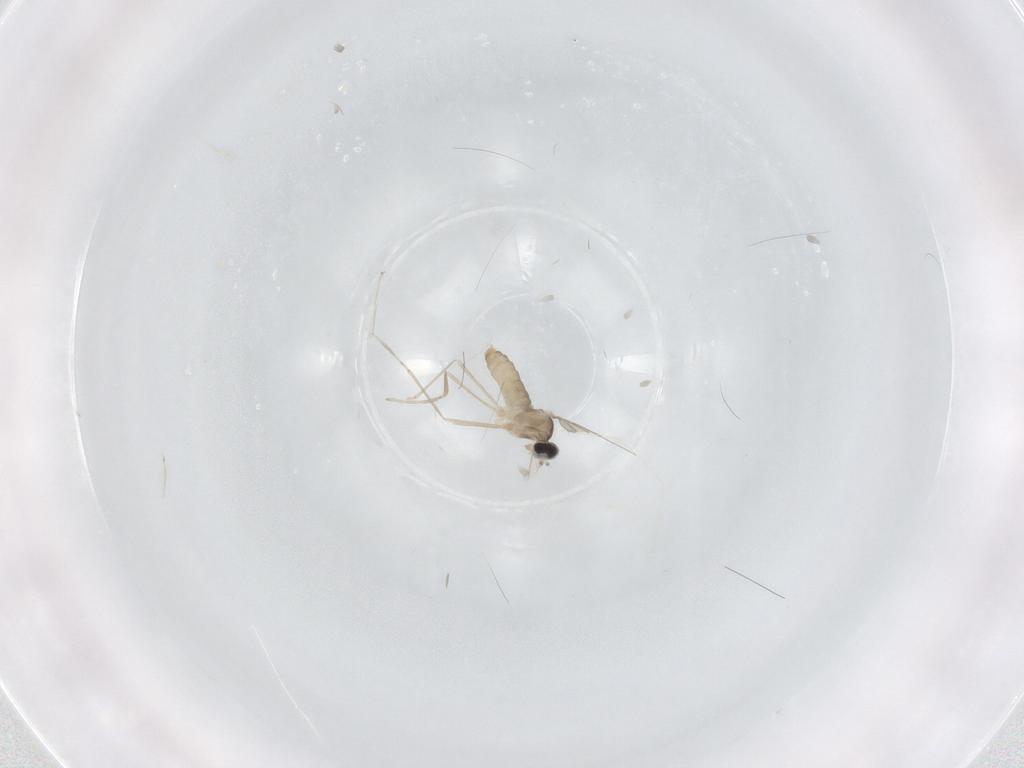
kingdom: Animalia
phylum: Arthropoda
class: Insecta
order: Diptera
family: Cecidomyiidae
